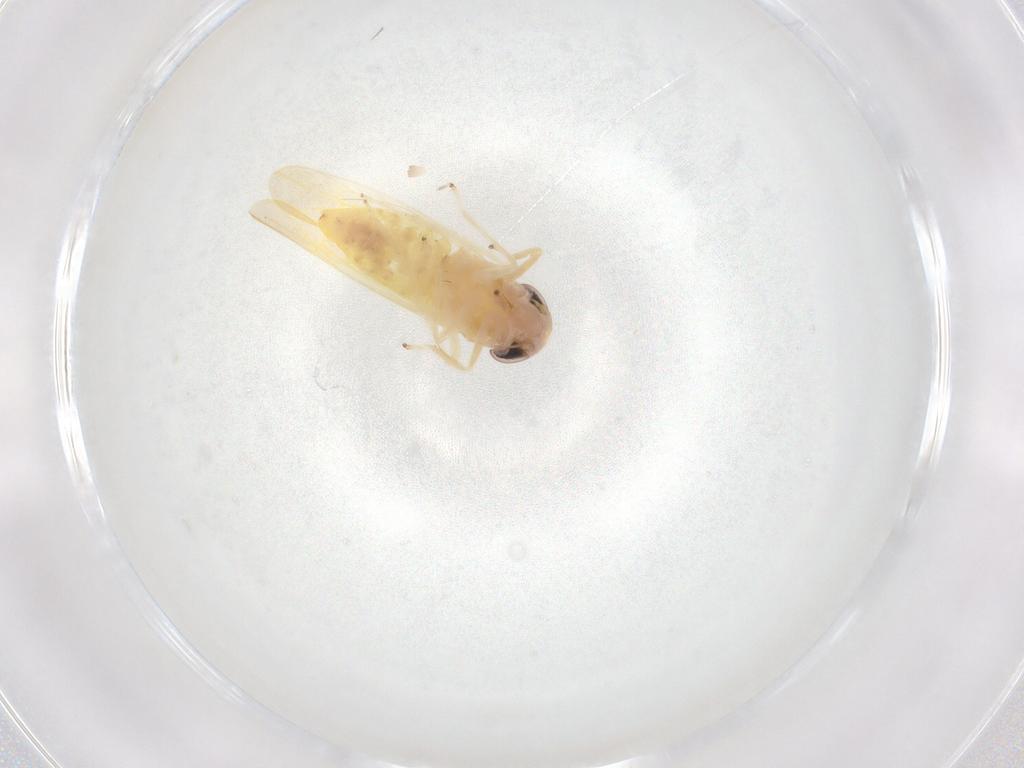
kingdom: Animalia
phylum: Arthropoda
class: Insecta
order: Hemiptera
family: Cicadellidae
